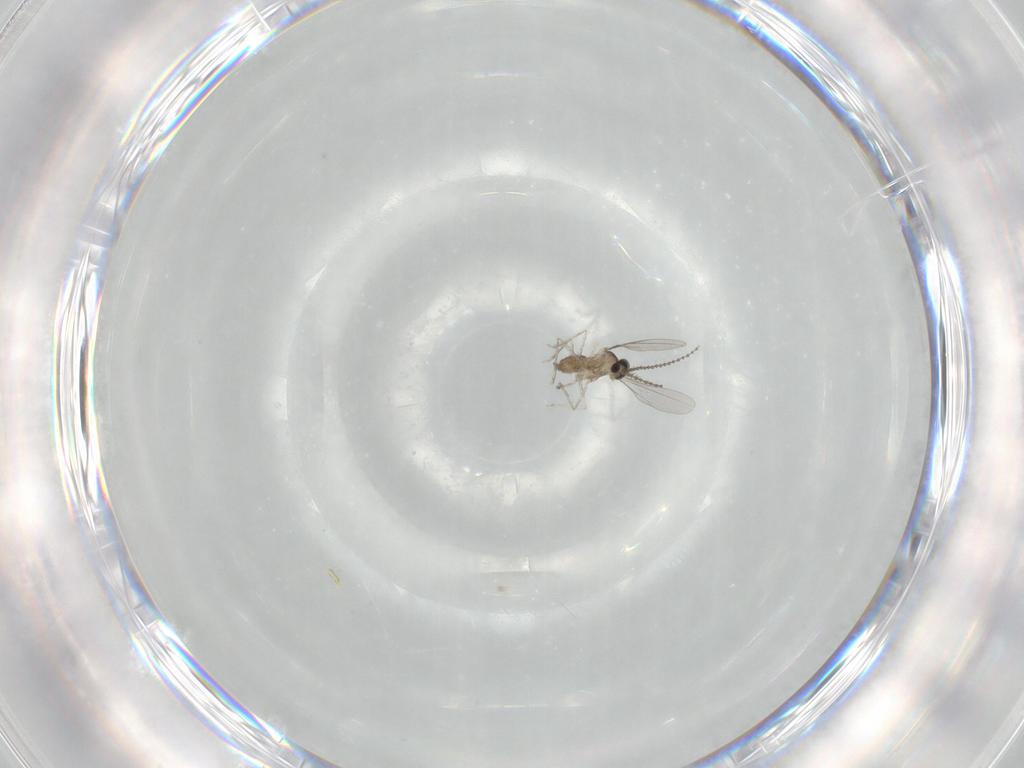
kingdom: Animalia
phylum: Arthropoda
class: Insecta
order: Diptera
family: Cecidomyiidae
